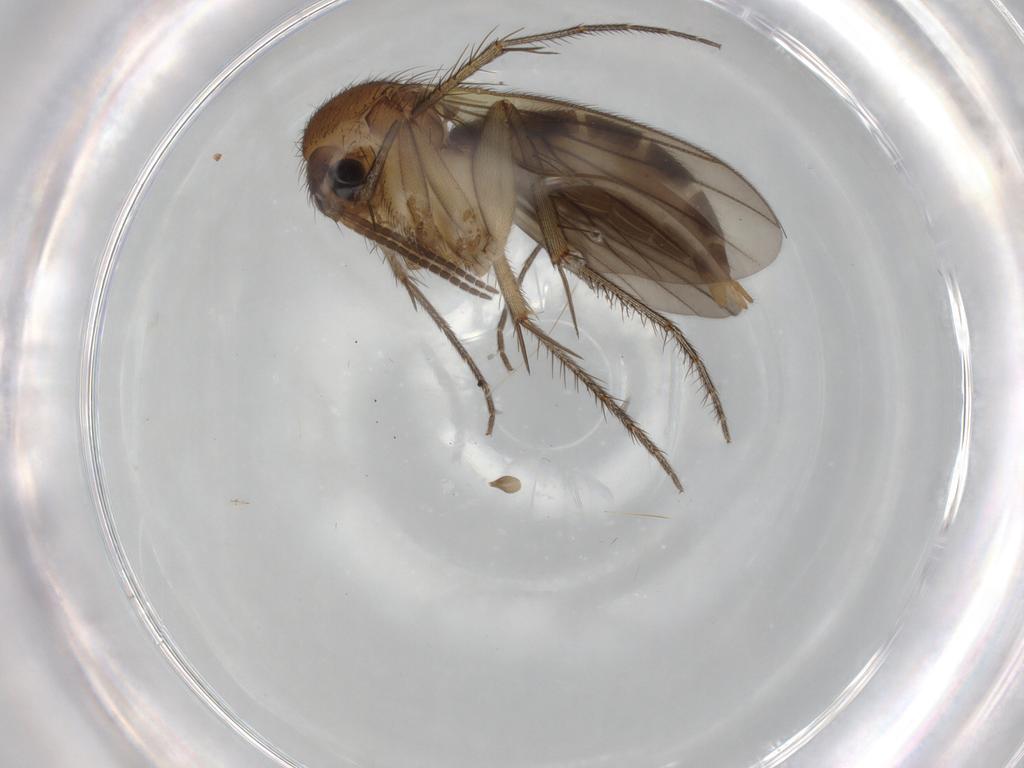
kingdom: Animalia
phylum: Arthropoda
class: Insecta
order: Diptera
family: Mycetophilidae
